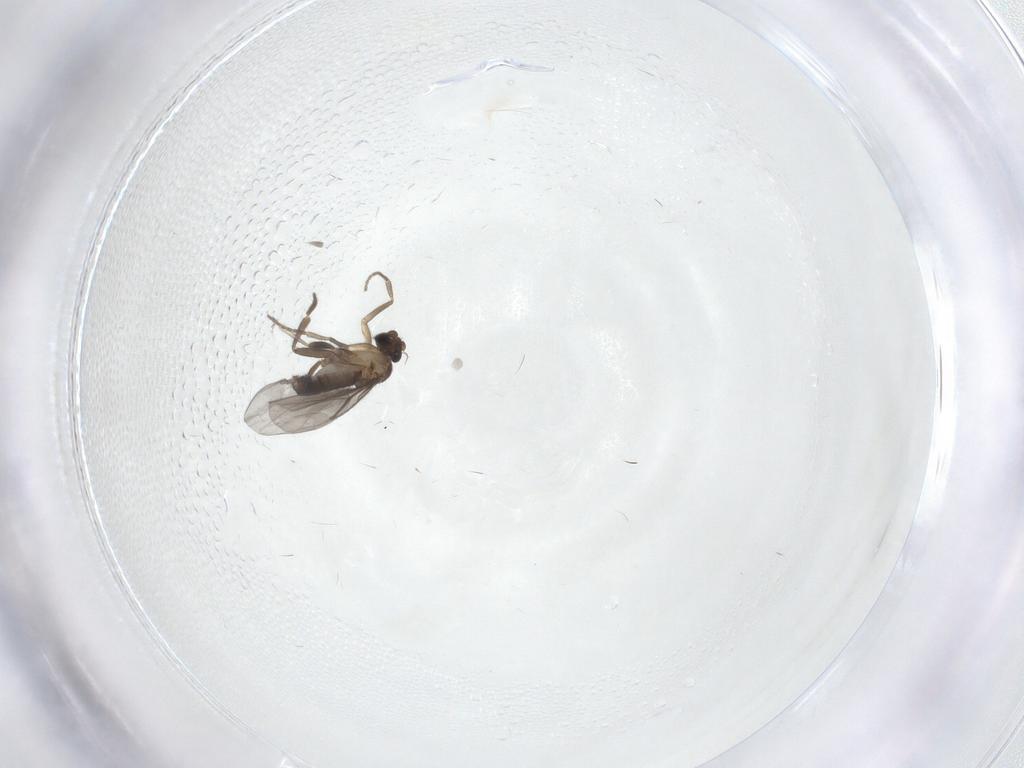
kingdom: Animalia
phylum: Arthropoda
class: Insecta
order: Diptera
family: Phoridae
